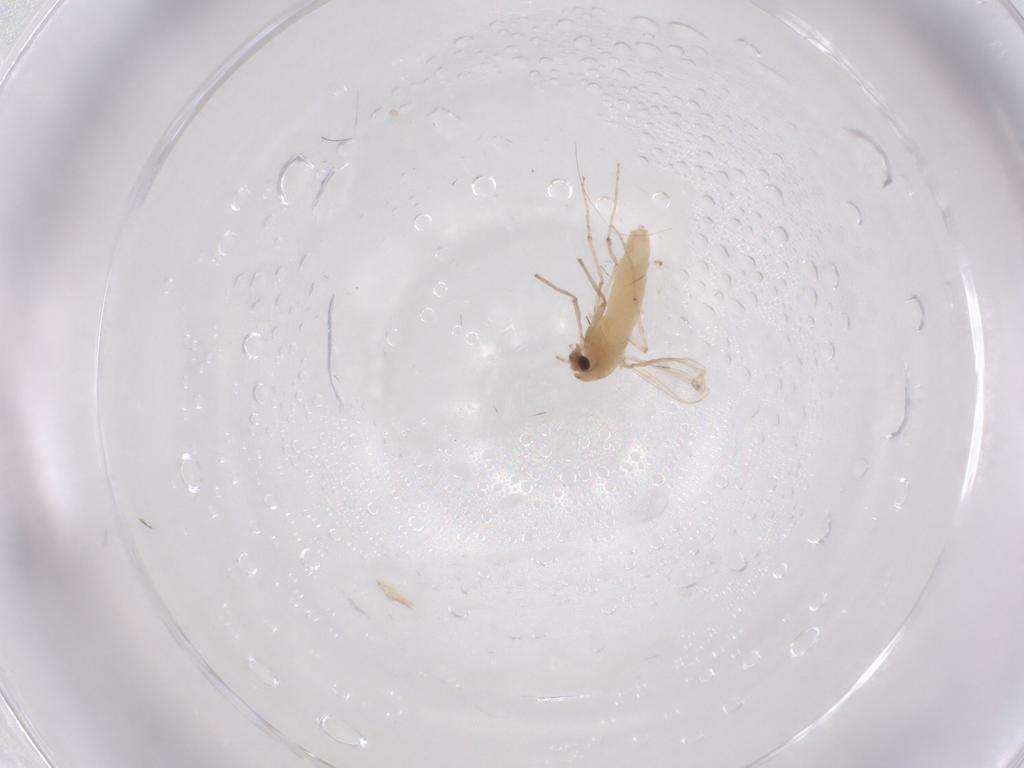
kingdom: Animalia
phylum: Arthropoda
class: Insecta
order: Diptera
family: Chironomidae
